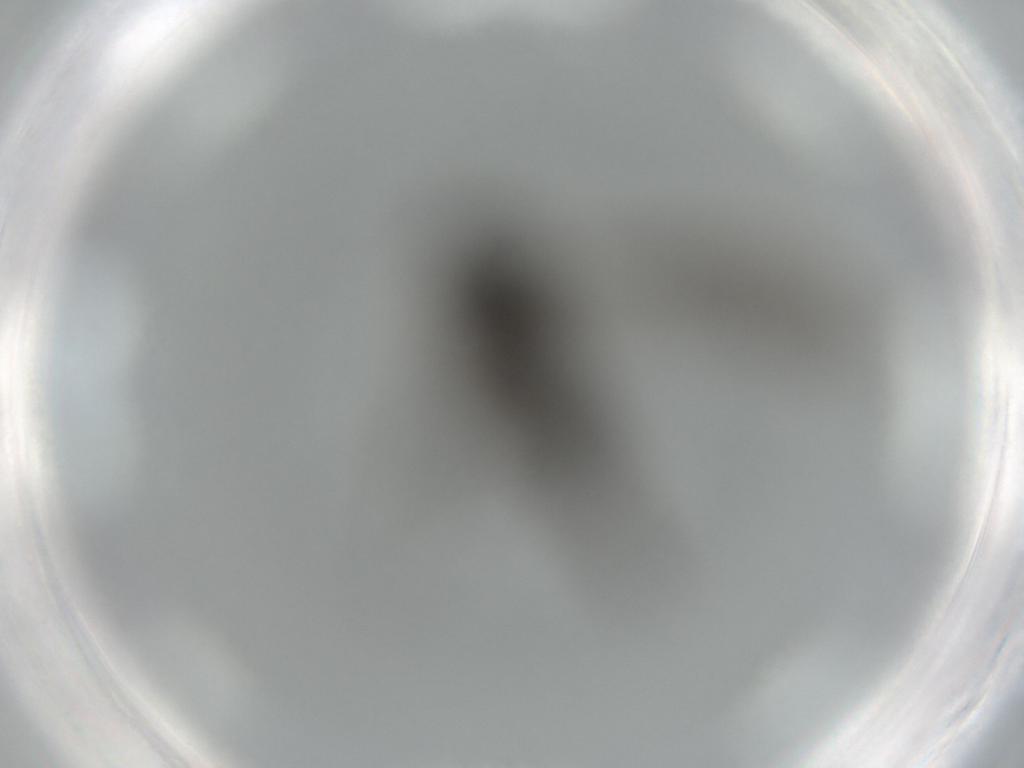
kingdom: Animalia
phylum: Arthropoda
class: Insecta
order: Diptera
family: Sciaridae
